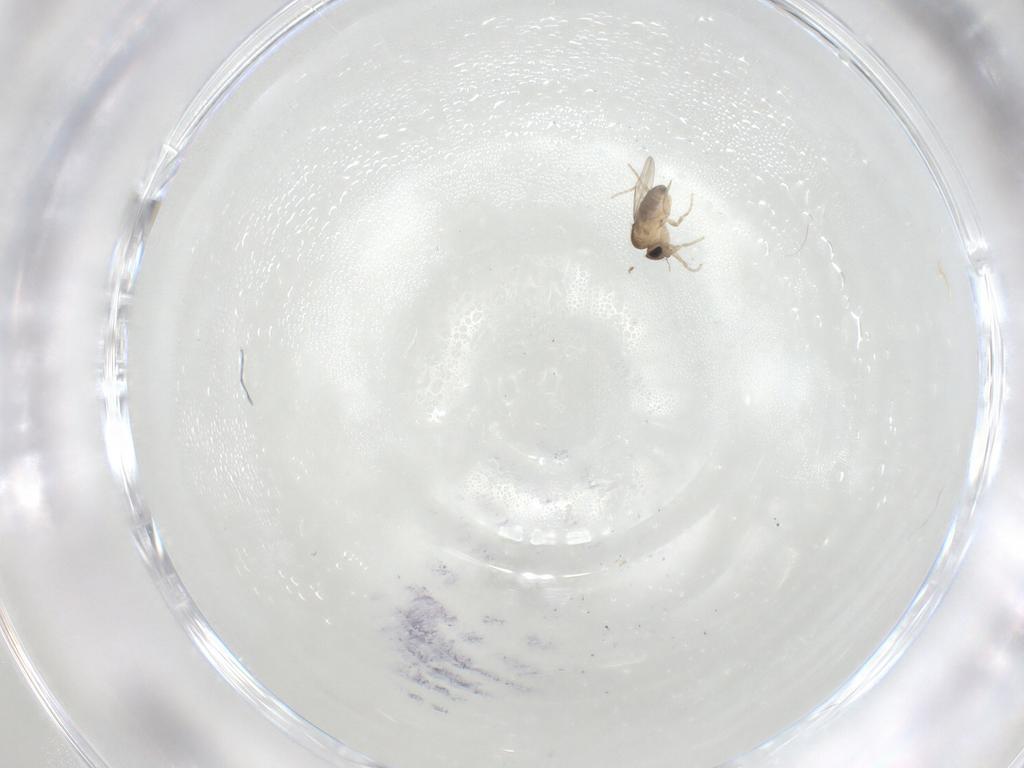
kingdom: Animalia
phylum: Arthropoda
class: Insecta
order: Diptera
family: Phoridae
